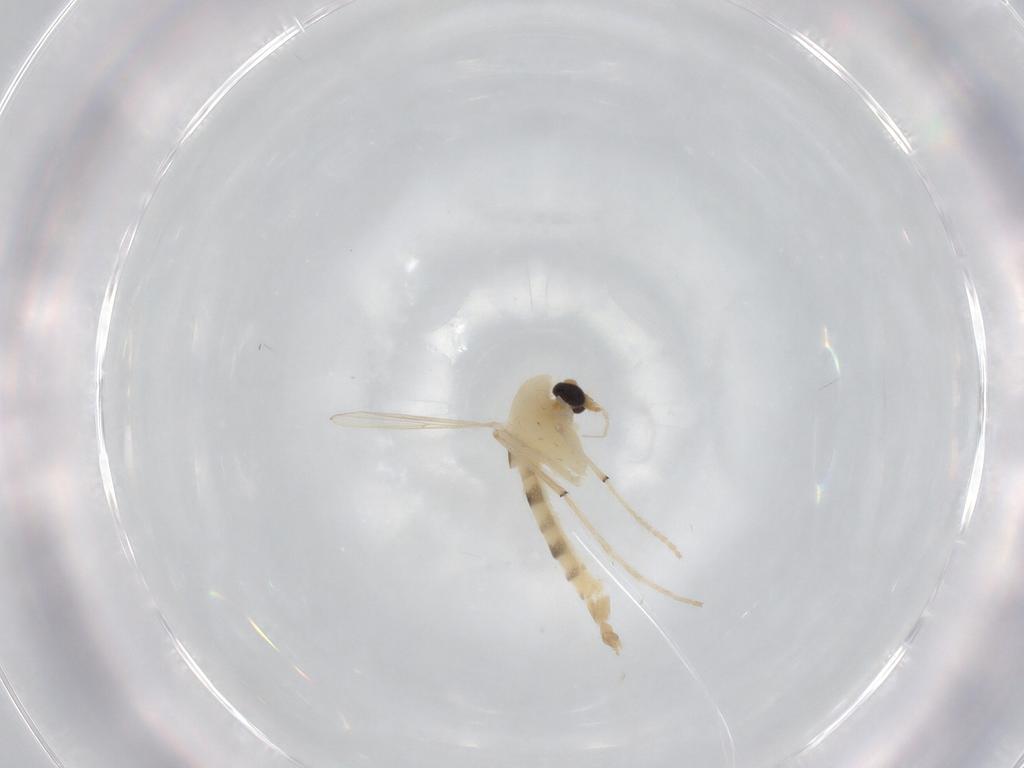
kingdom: Animalia
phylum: Arthropoda
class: Insecta
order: Diptera
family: Chironomidae
